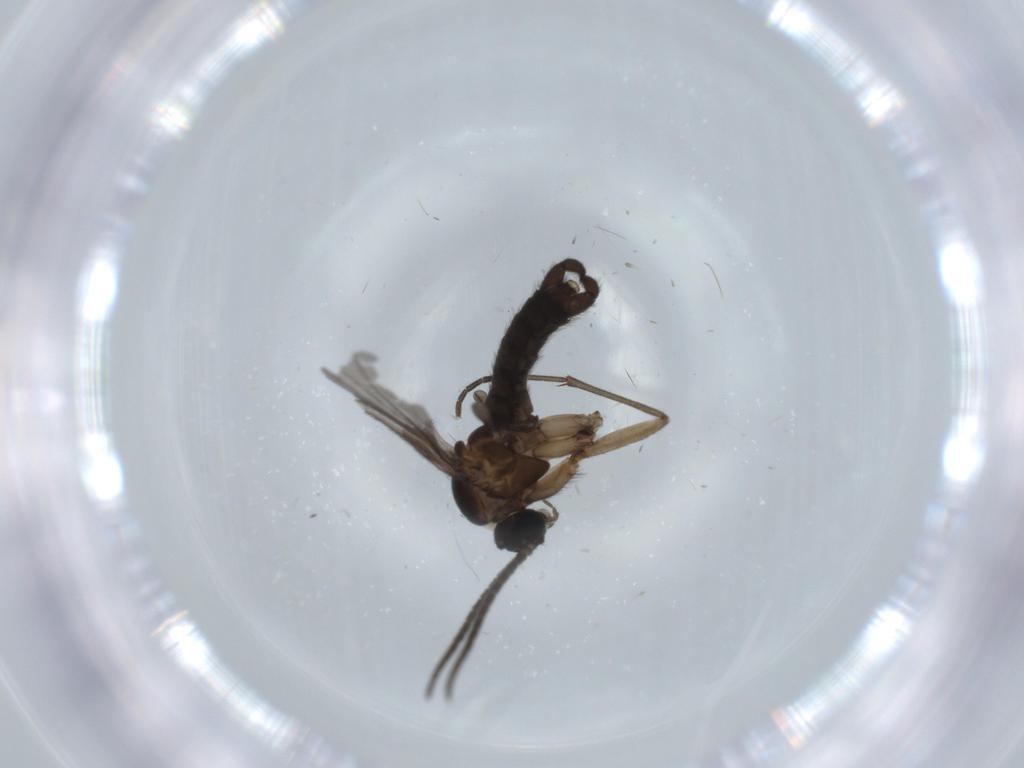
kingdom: Animalia
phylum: Arthropoda
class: Insecta
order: Diptera
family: Sciaridae
